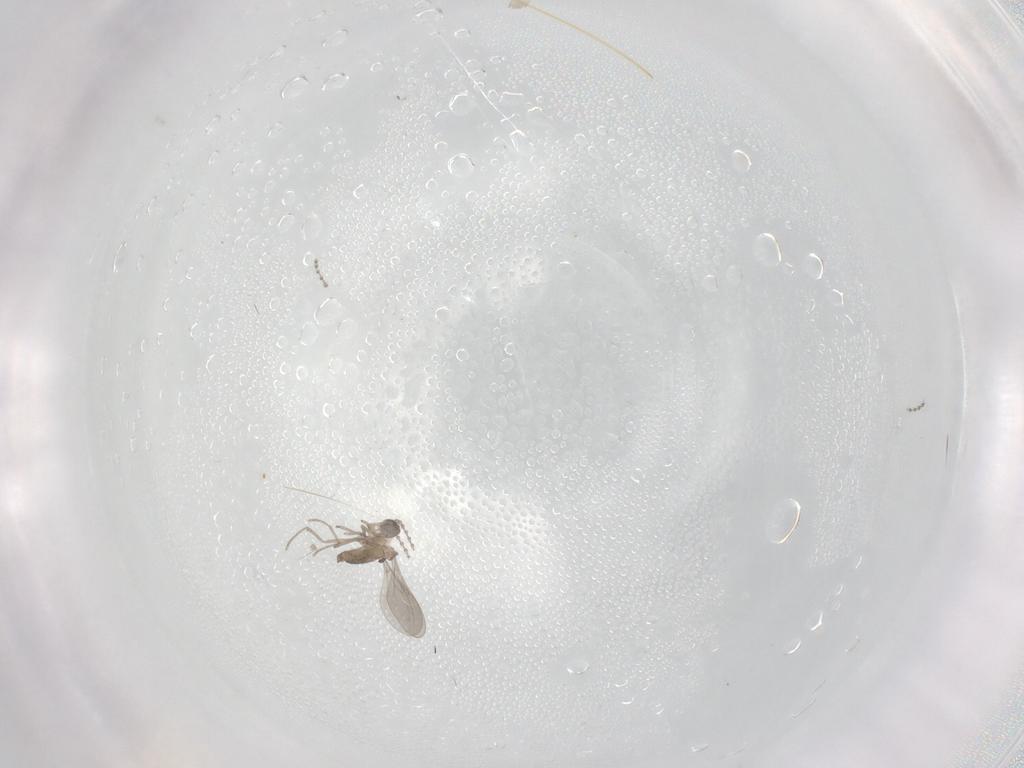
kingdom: Animalia
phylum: Arthropoda
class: Insecta
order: Diptera
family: Cecidomyiidae
